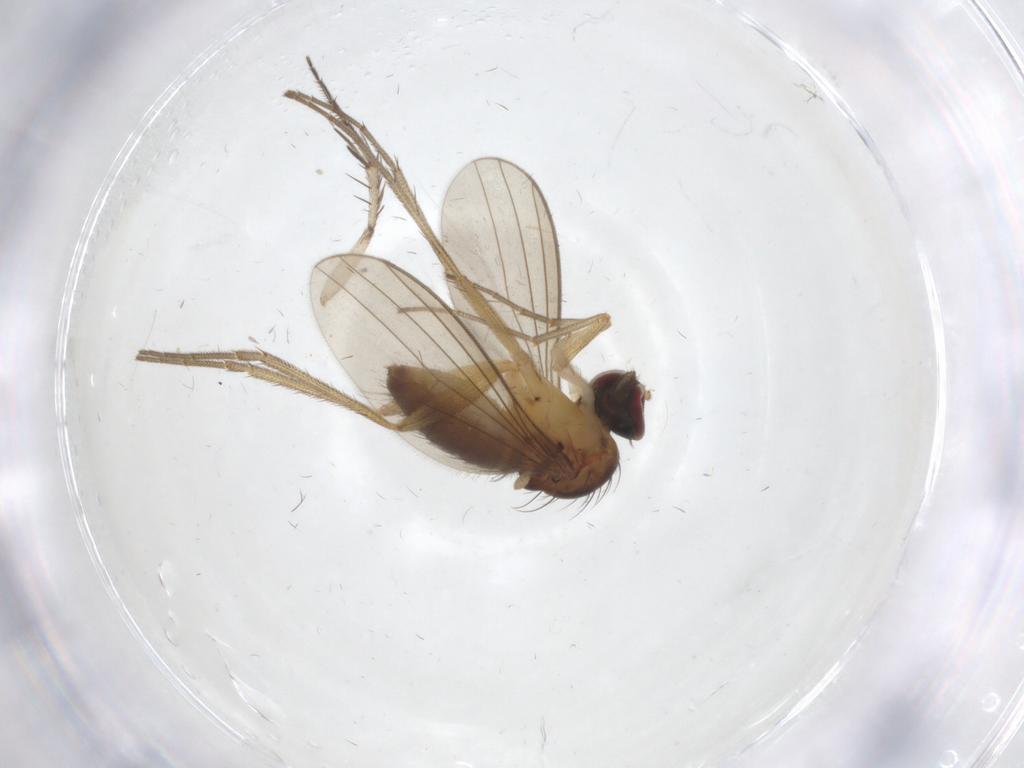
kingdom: Animalia
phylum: Arthropoda
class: Insecta
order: Diptera
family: Dolichopodidae
